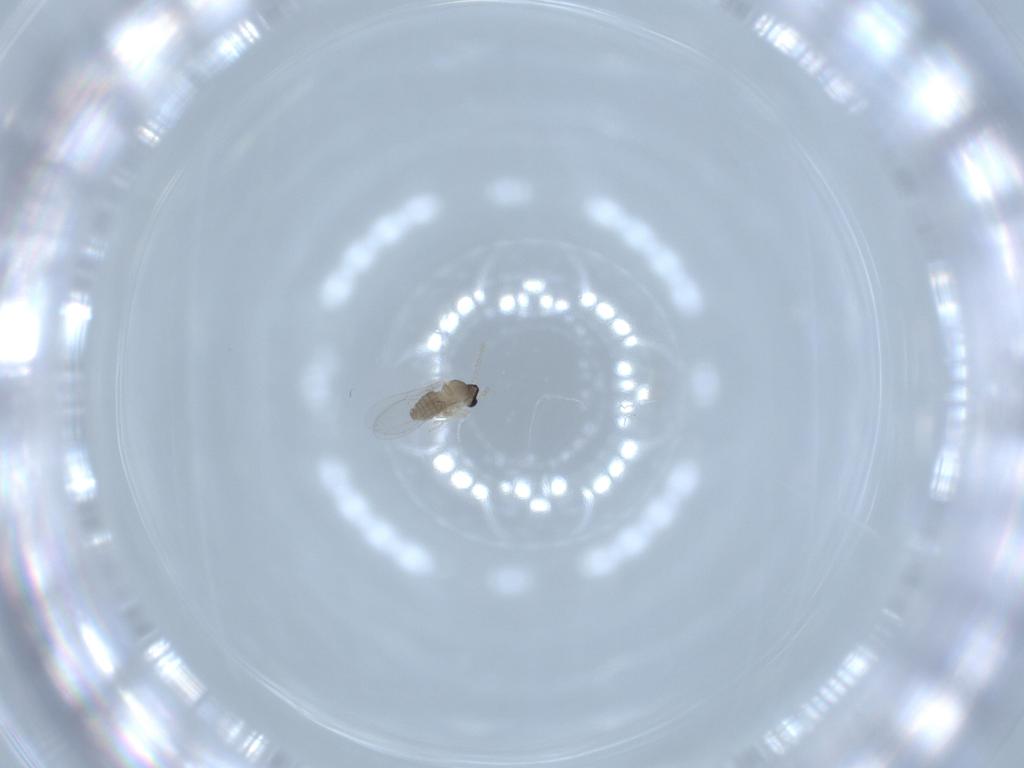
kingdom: Animalia
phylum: Arthropoda
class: Insecta
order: Diptera
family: Cecidomyiidae
